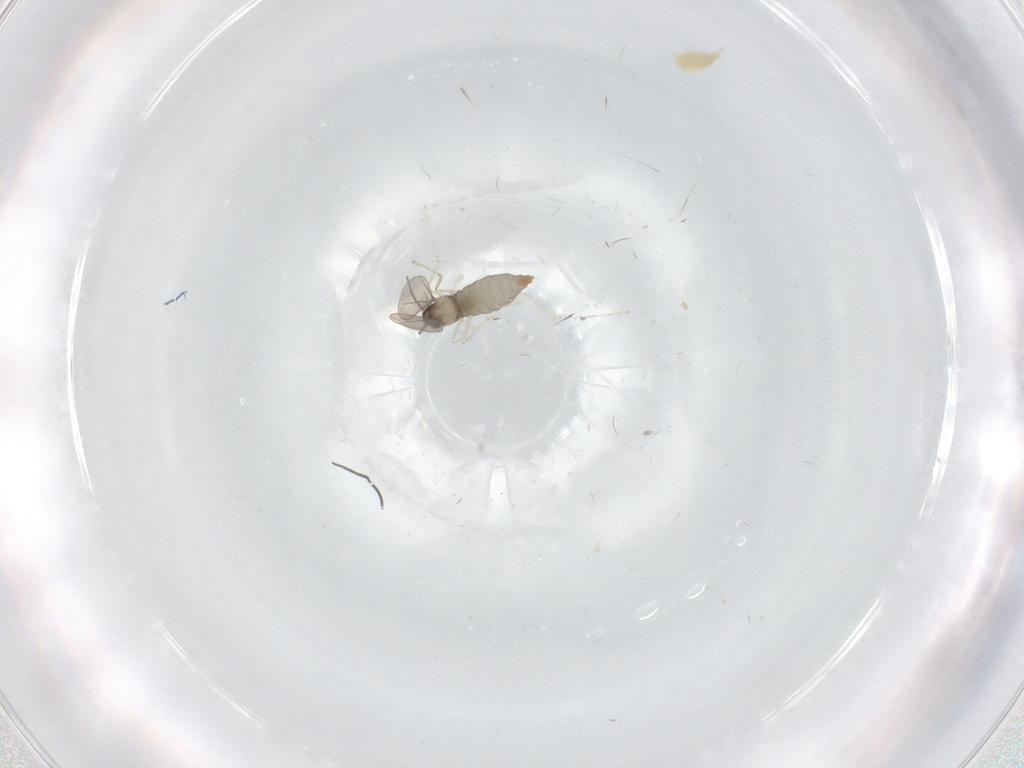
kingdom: Animalia
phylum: Arthropoda
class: Insecta
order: Diptera
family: Cecidomyiidae
